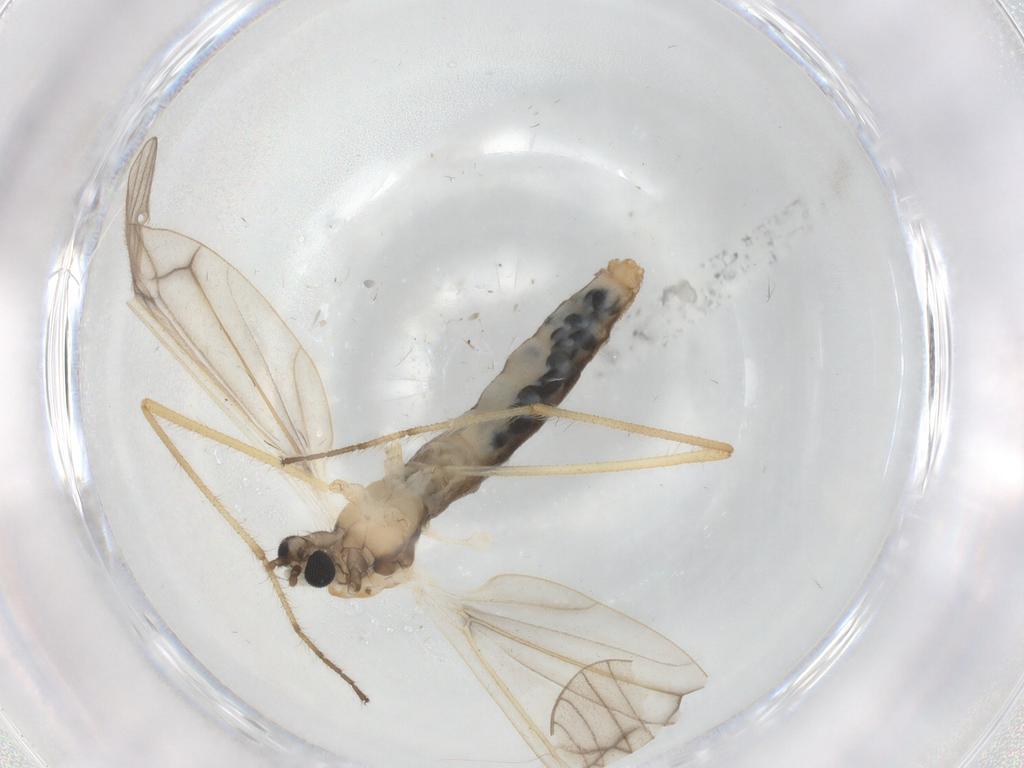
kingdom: Animalia
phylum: Arthropoda
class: Insecta
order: Diptera
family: Limoniidae
